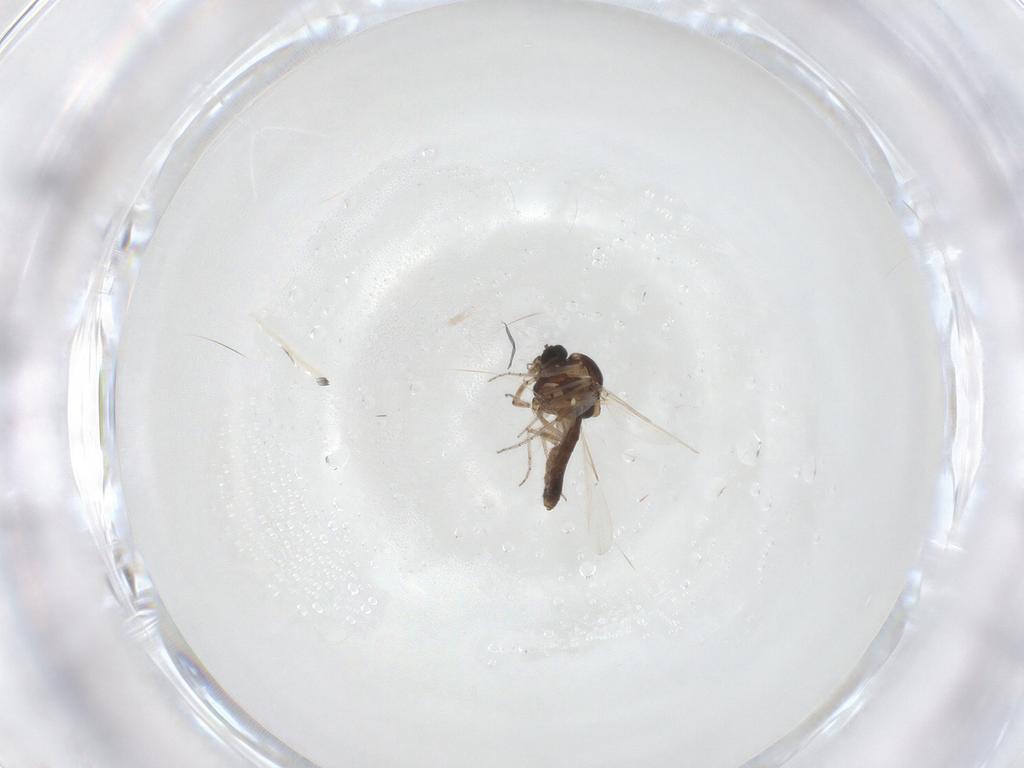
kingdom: Animalia
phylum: Arthropoda
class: Insecta
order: Diptera
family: Ceratopogonidae
